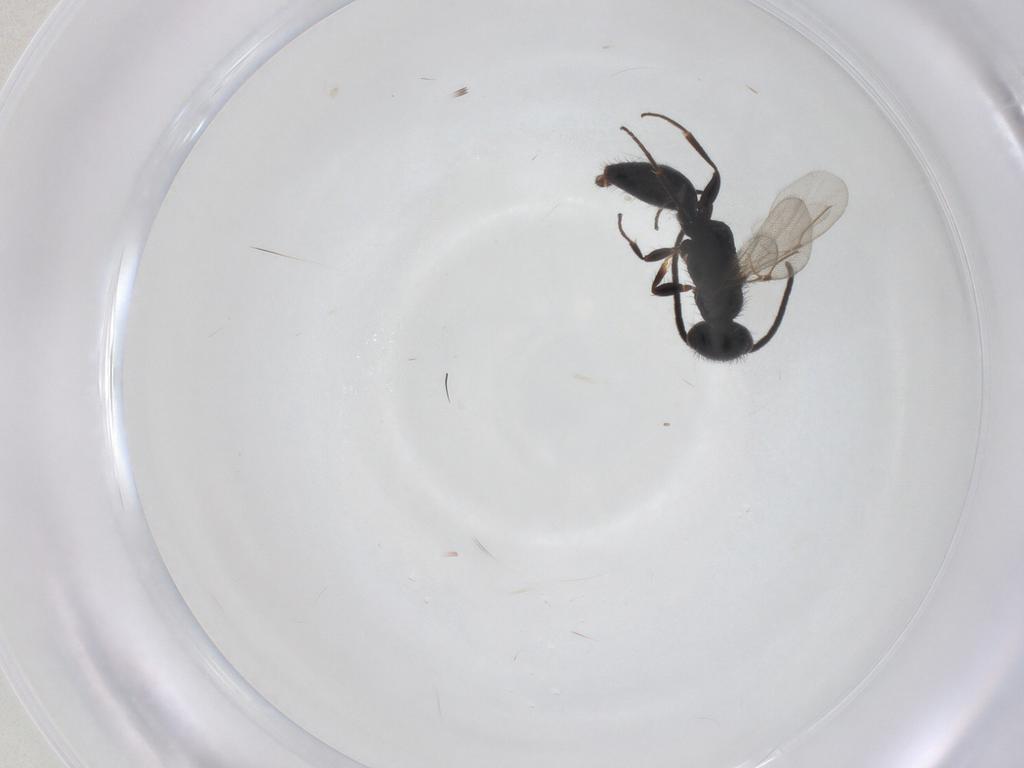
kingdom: Animalia
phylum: Arthropoda
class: Insecta
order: Hymenoptera
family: Bethylidae
